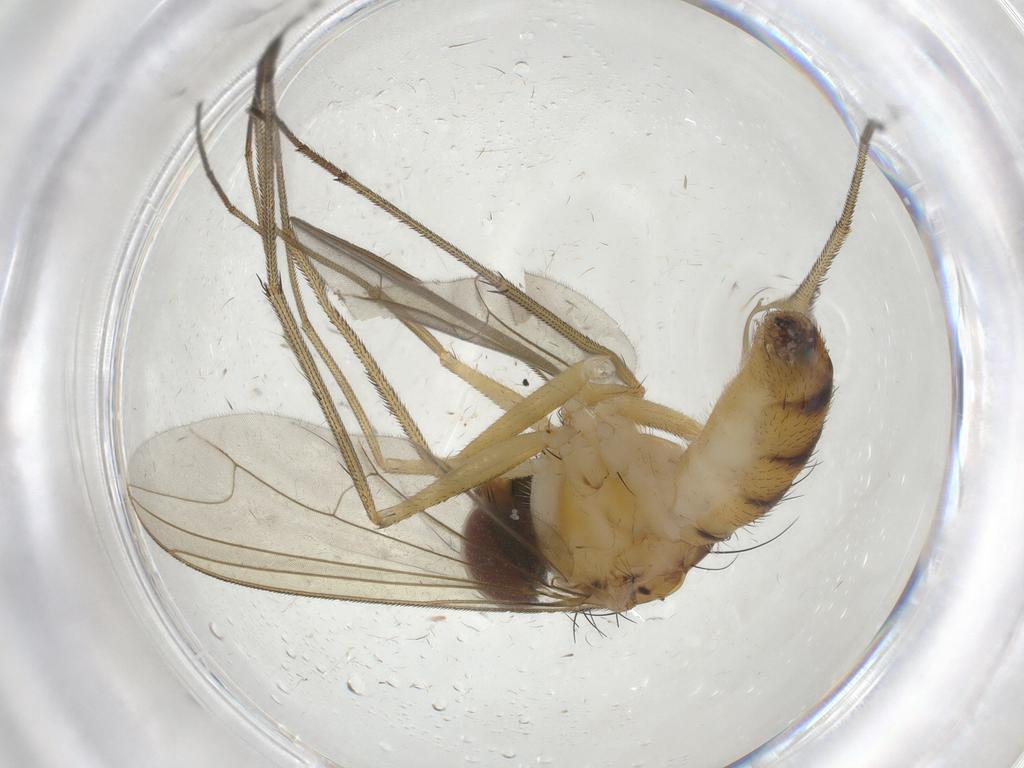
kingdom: Animalia
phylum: Arthropoda
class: Insecta
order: Diptera
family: Dolichopodidae
